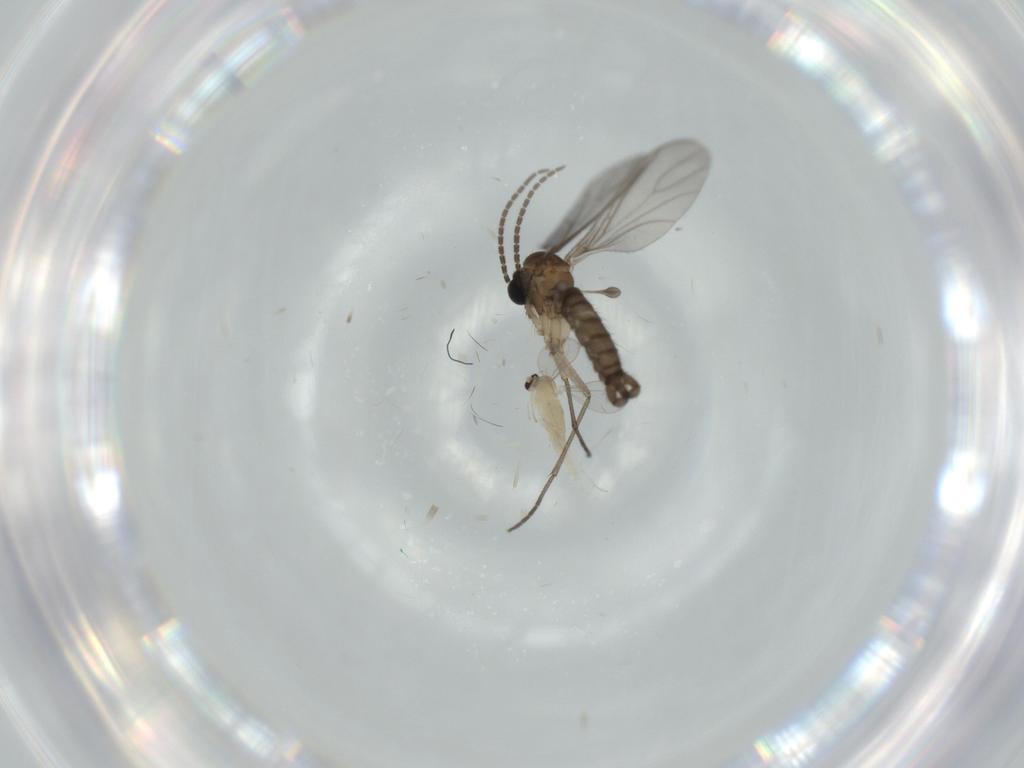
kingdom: Animalia
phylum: Arthropoda
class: Insecta
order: Diptera
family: Cecidomyiidae
